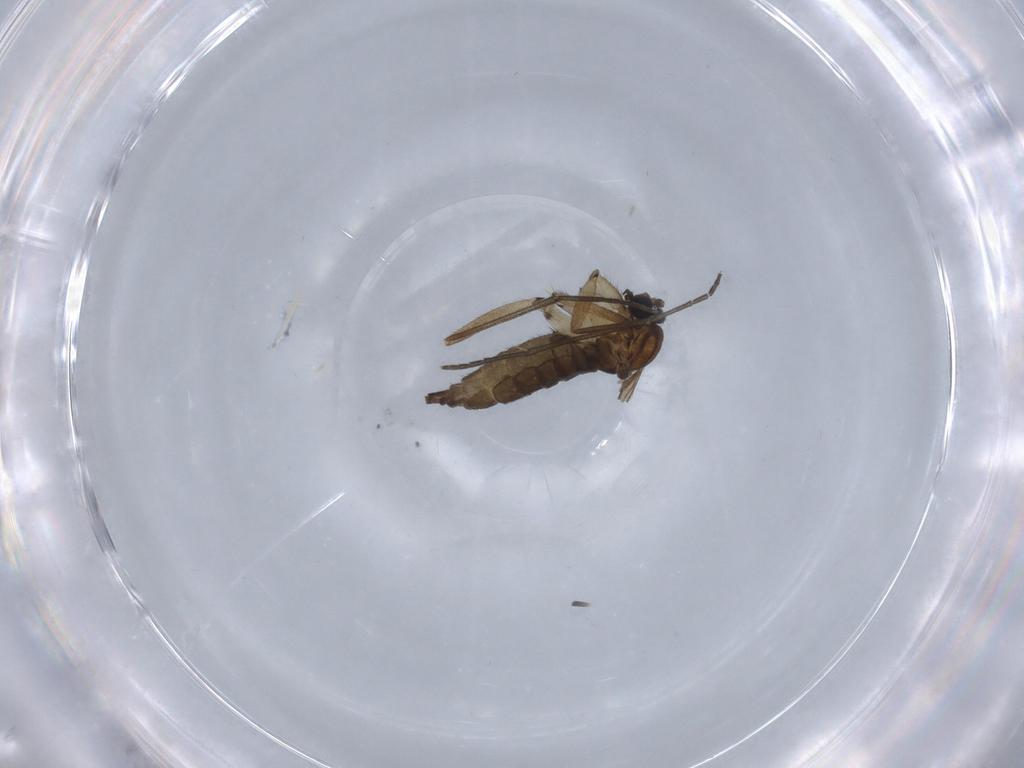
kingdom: Animalia
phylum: Arthropoda
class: Insecta
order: Diptera
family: Sciaridae
